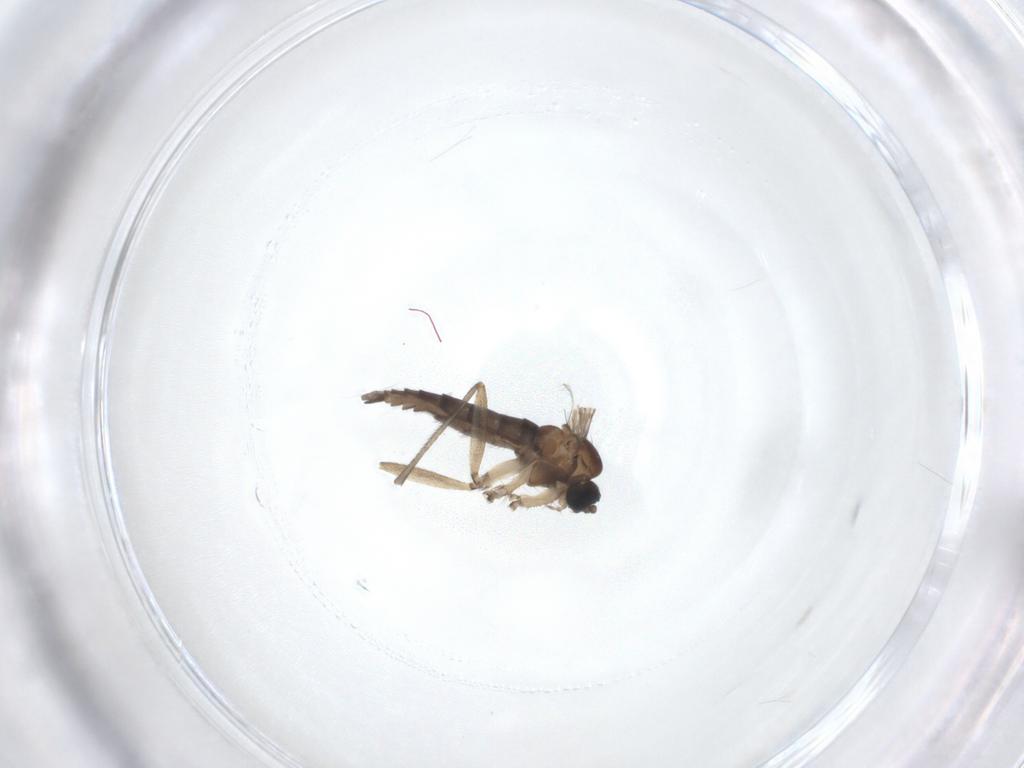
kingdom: Animalia
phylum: Arthropoda
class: Insecta
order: Diptera
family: Sciaridae
